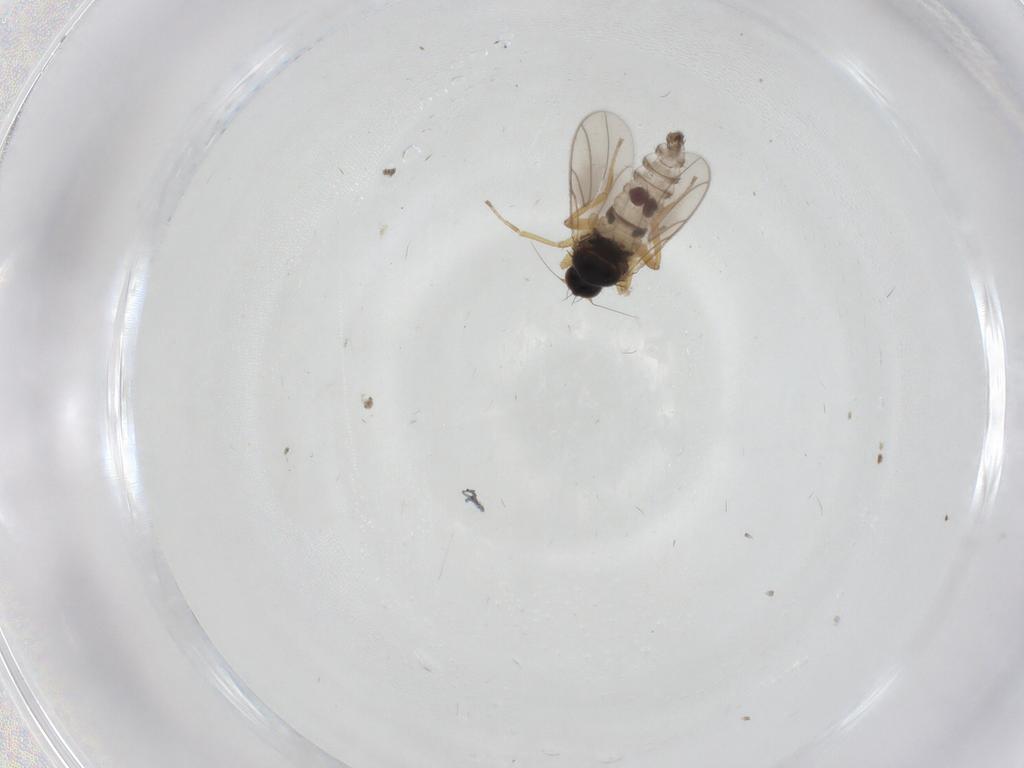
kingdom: Animalia
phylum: Arthropoda
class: Insecta
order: Diptera
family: Hybotidae
